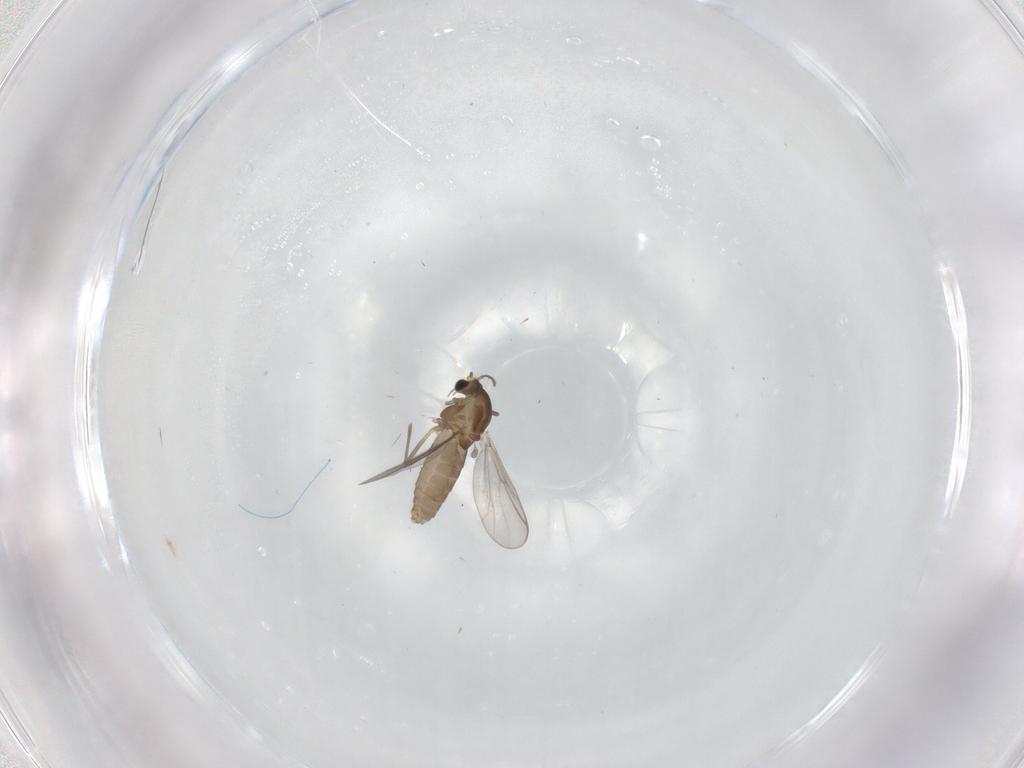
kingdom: Animalia
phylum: Arthropoda
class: Insecta
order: Diptera
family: Chironomidae
